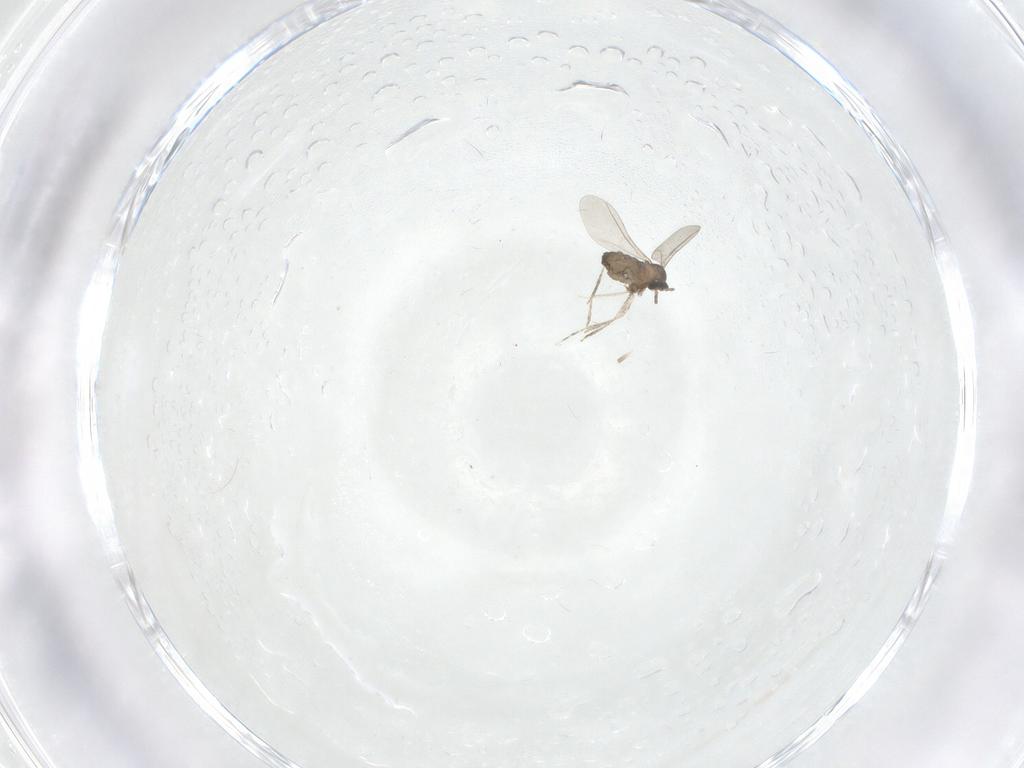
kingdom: Animalia
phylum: Arthropoda
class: Insecta
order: Diptera
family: Cecidomyiidae
